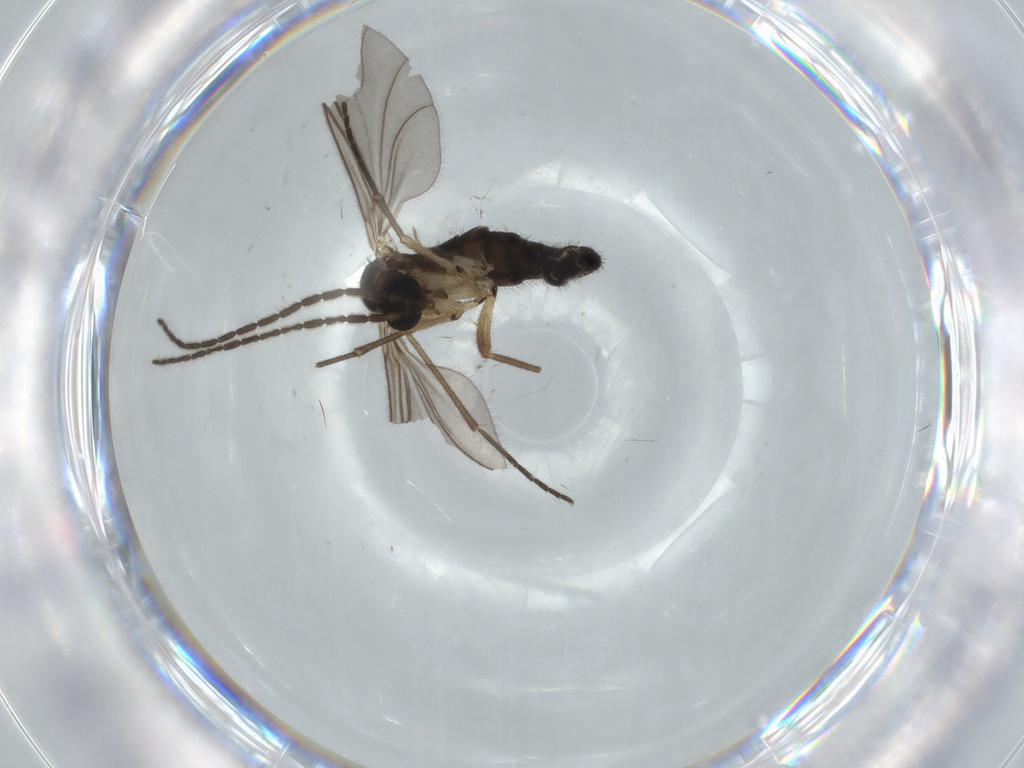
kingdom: Animalia
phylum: Arthropoda
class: Insecta
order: Diptera
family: Sciaridae
